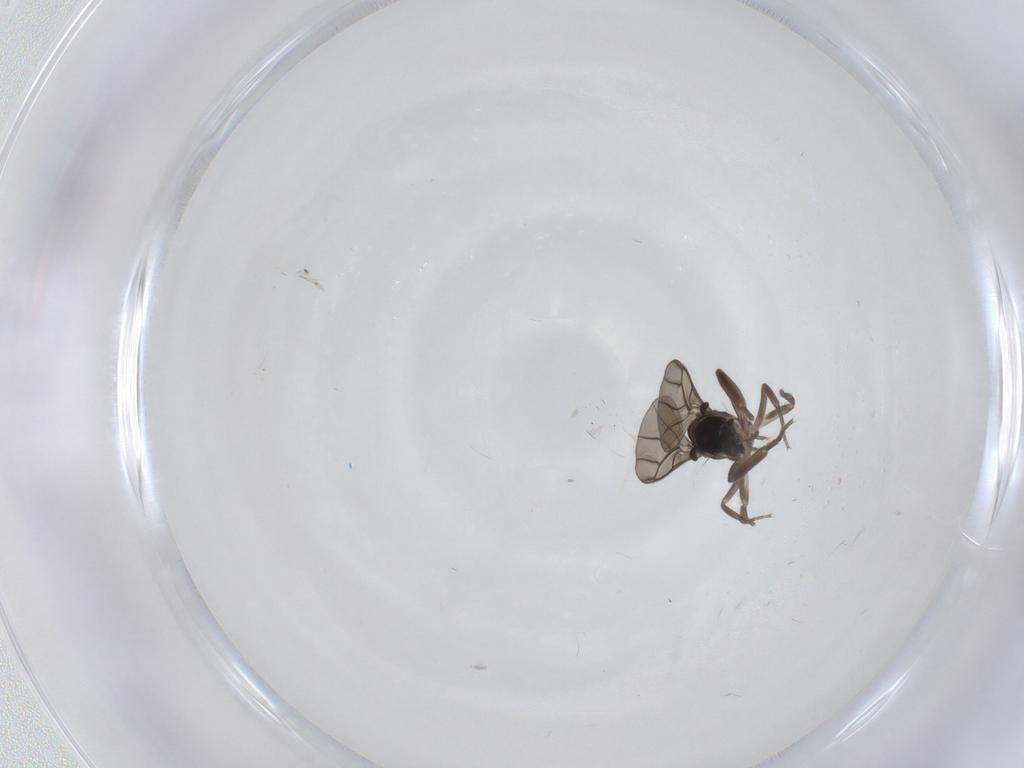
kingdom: Animalia
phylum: Arthropoda
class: Insecta
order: Diptera
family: Cecidomyiidae
